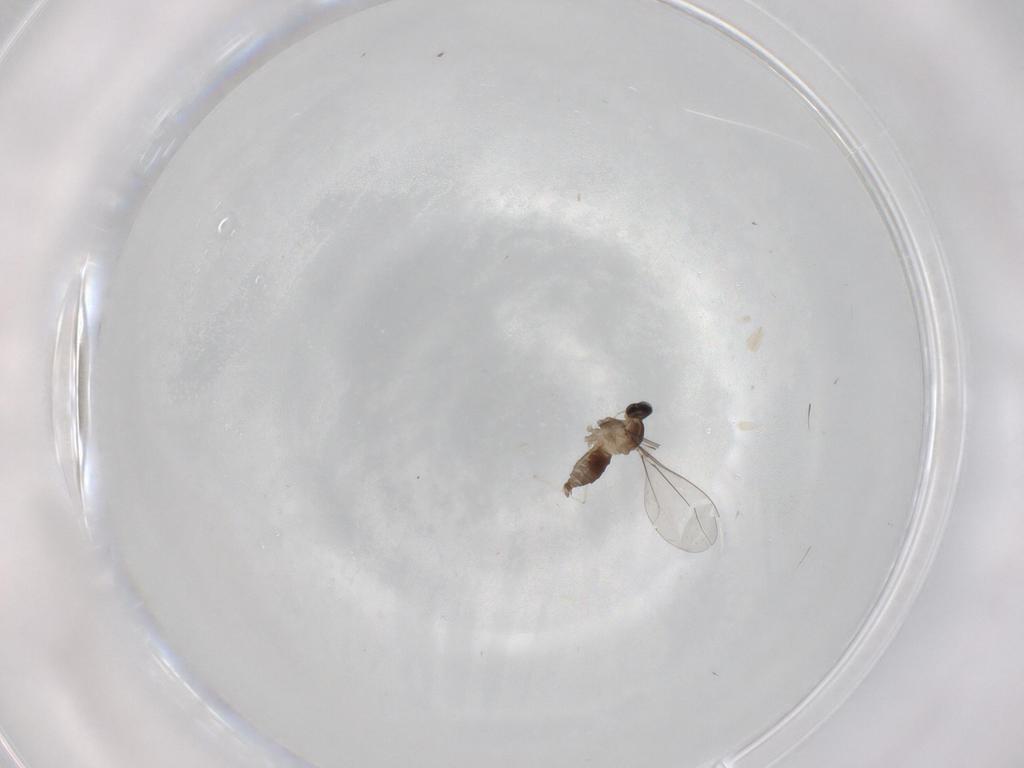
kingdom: Animalia
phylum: Arthropoda
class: Insecta
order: Diptera
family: Cecidomyiidae
